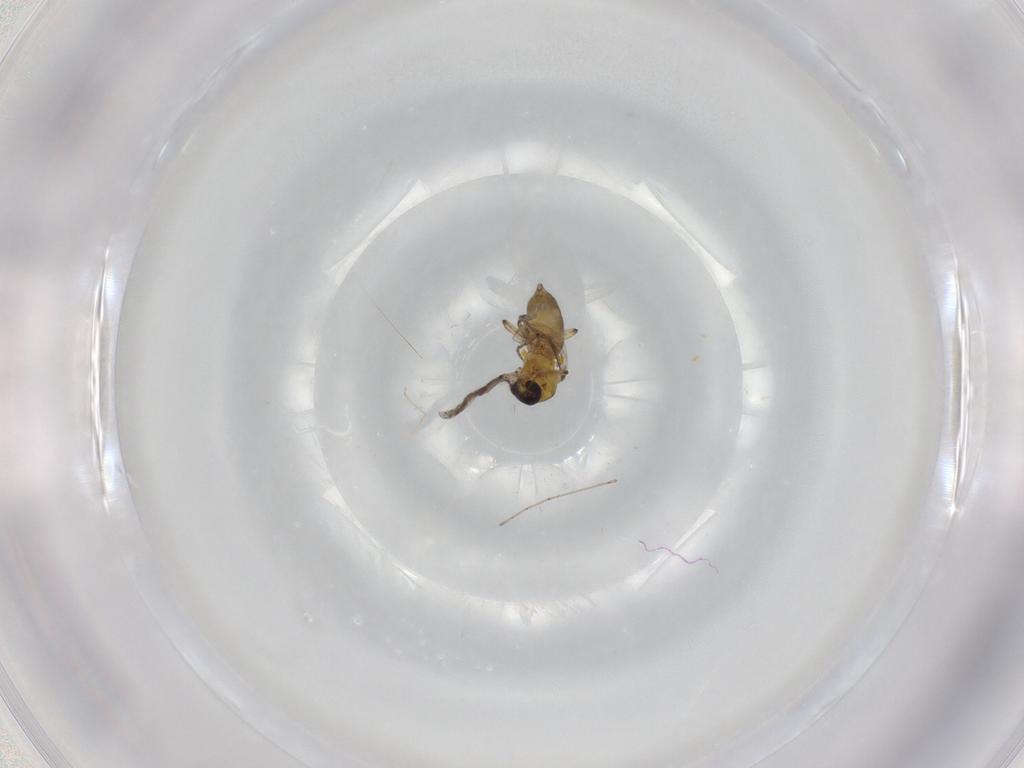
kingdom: Animalia
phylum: Arthropoda
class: Insecta
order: Diptera
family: Ceratopogonidae
